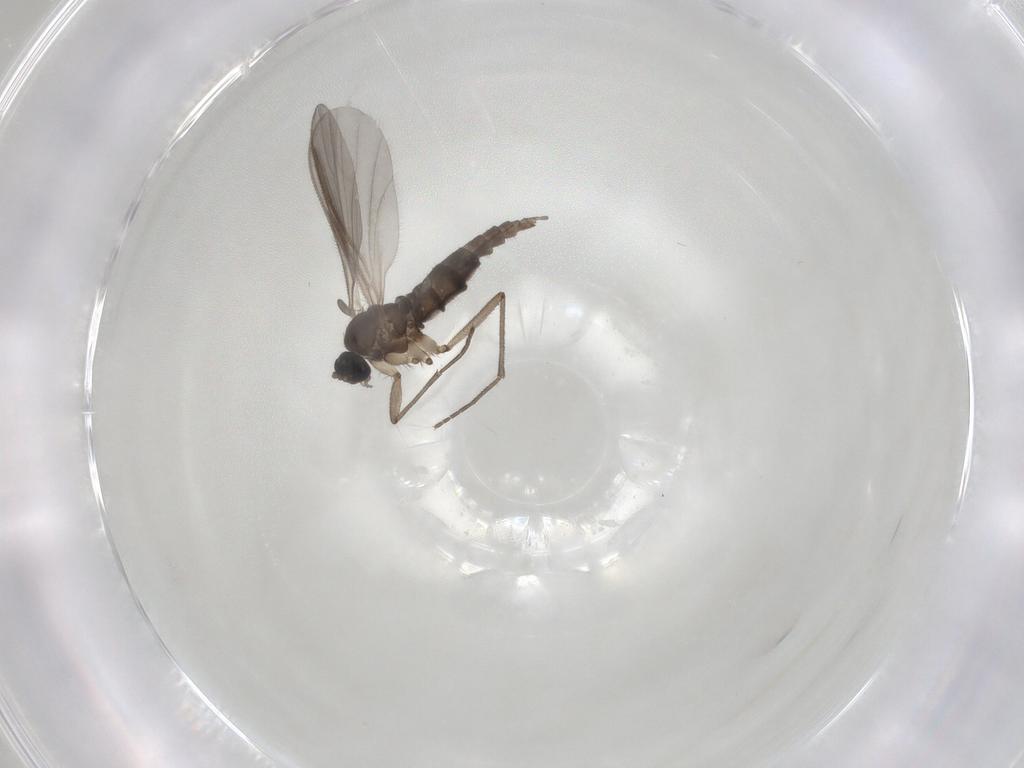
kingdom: Animalia
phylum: Arthropoda
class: Insecta
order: Diptera
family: Sciaridae
